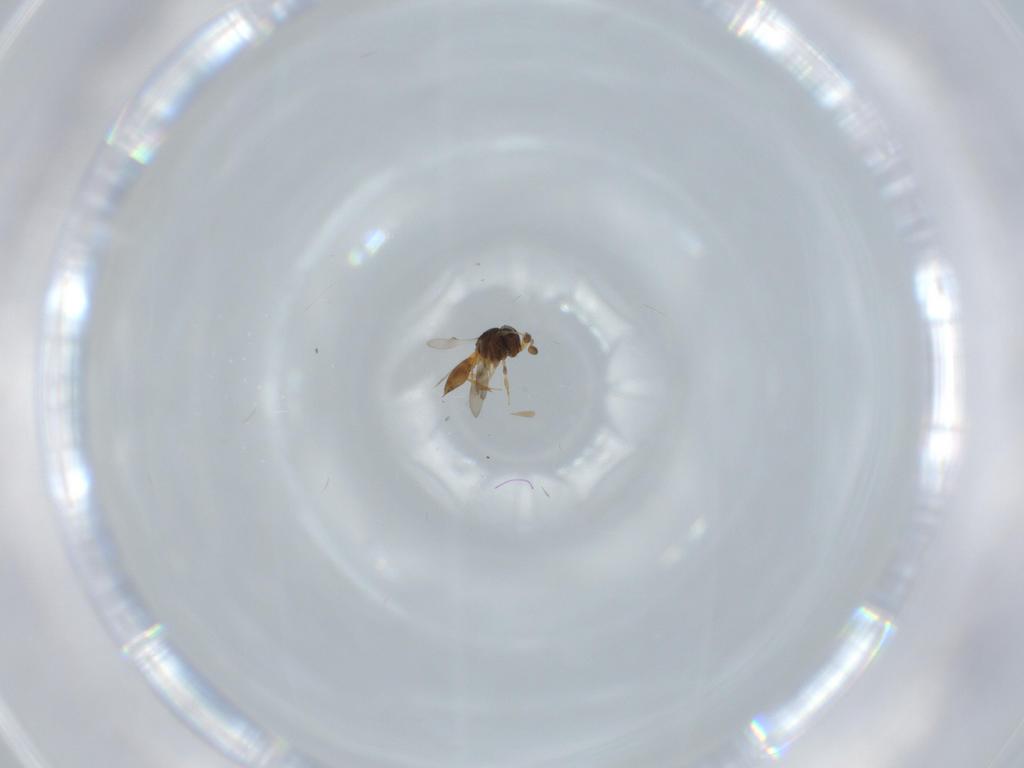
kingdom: Animalia
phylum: Arthropoda
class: Insecta
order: Hymenoptera
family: Scelionidae
